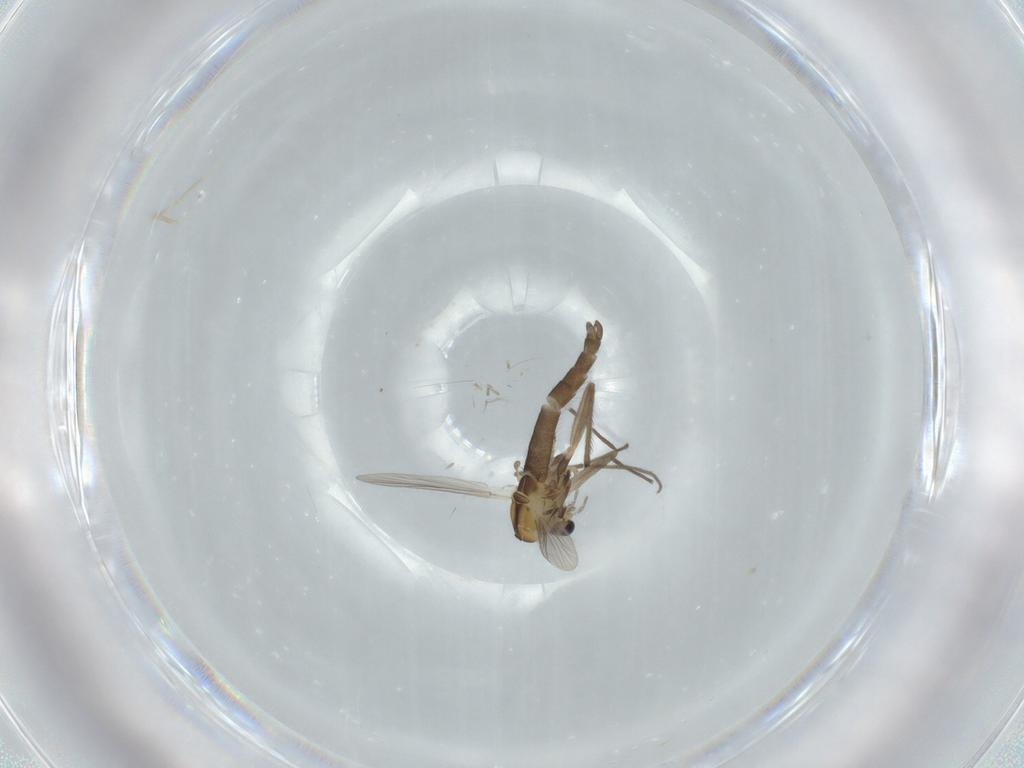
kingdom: Animalia
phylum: Arthropoda
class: Insecta
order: Diptera
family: Chironomidae
